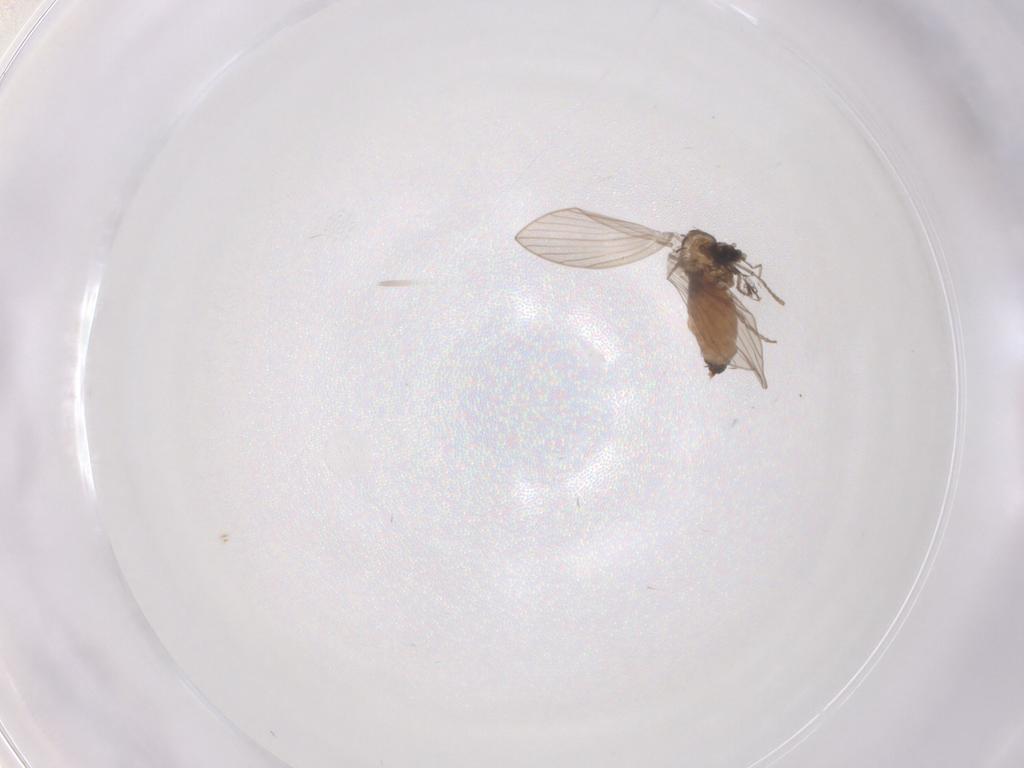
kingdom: Animalia
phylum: Arthropoda
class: Insecta
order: Diptera
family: Psychodidae
